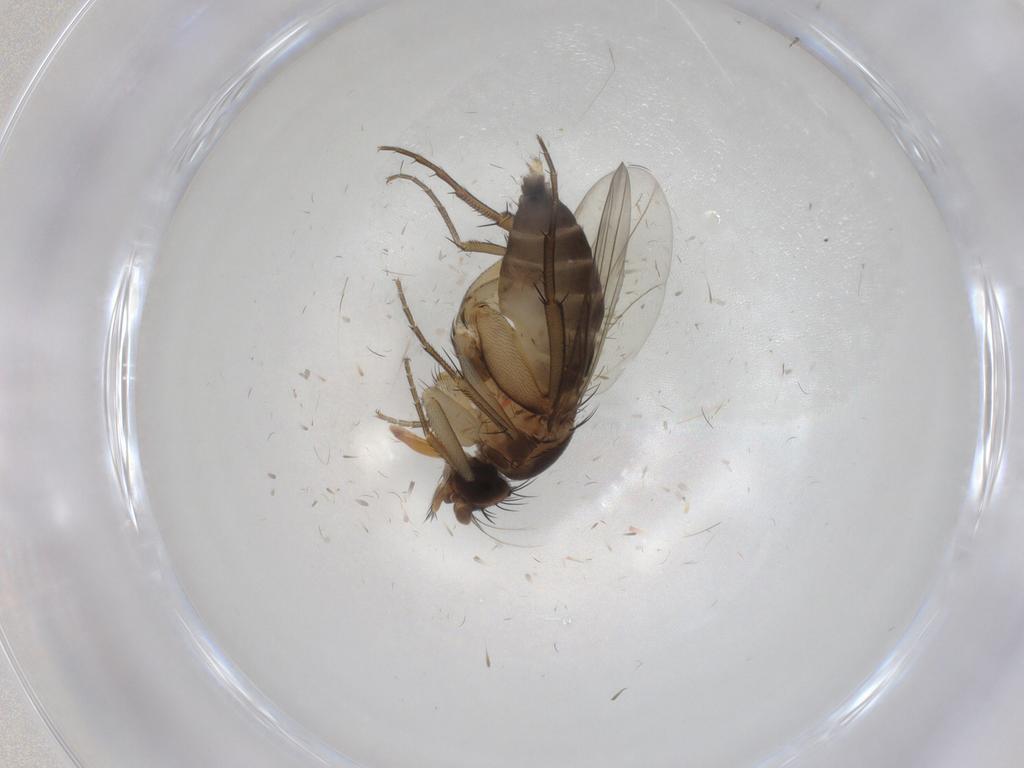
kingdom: Animalia
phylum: Arthropoda
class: Insecta
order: Diptera
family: Phoridae
